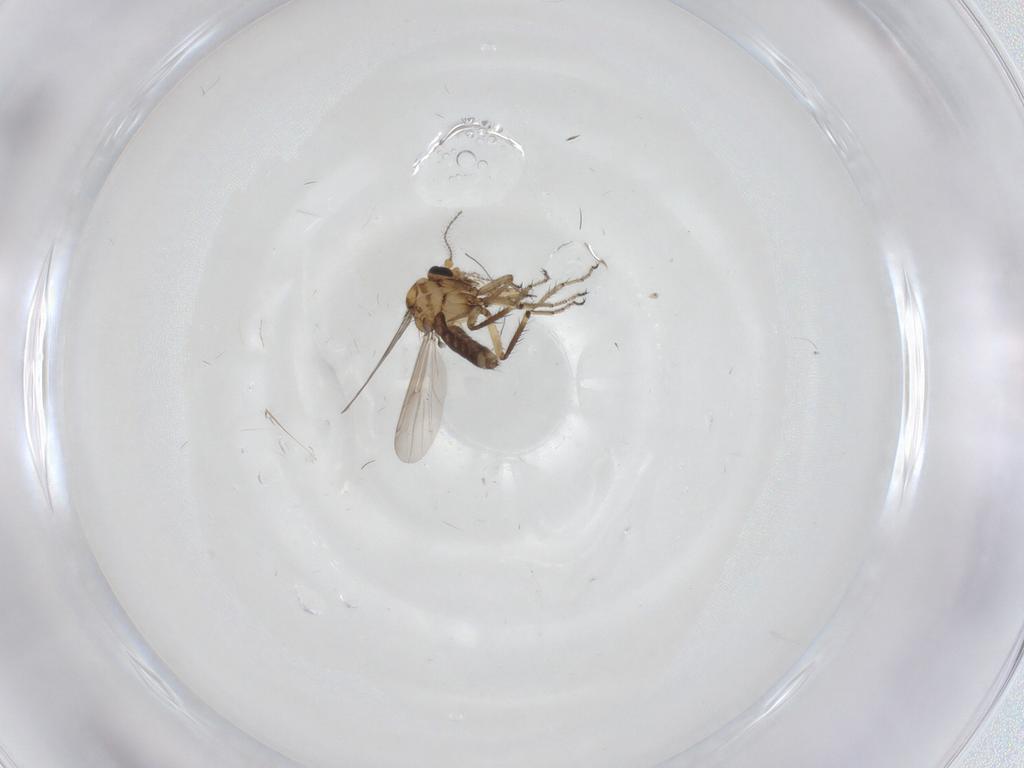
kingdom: Animalia
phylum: Arthropoda
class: Insecta
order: Diptera
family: Ceratopogonidae
